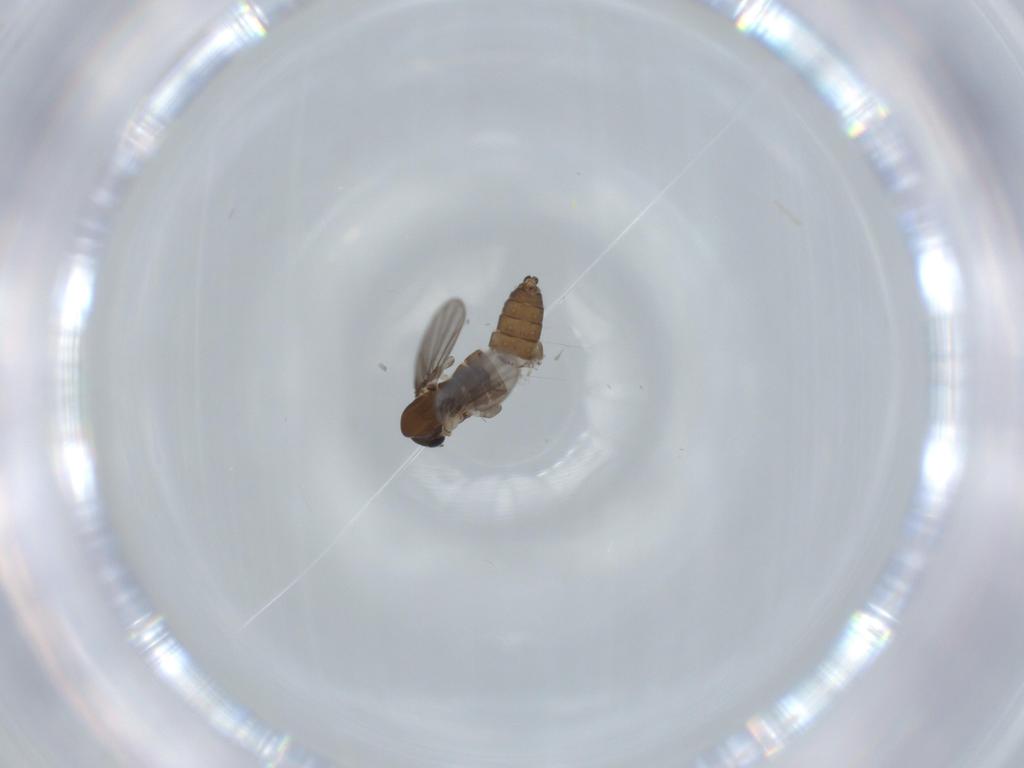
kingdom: Animalia
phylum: Arthropoda
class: Insecta
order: Diptera
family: Psychodidae
